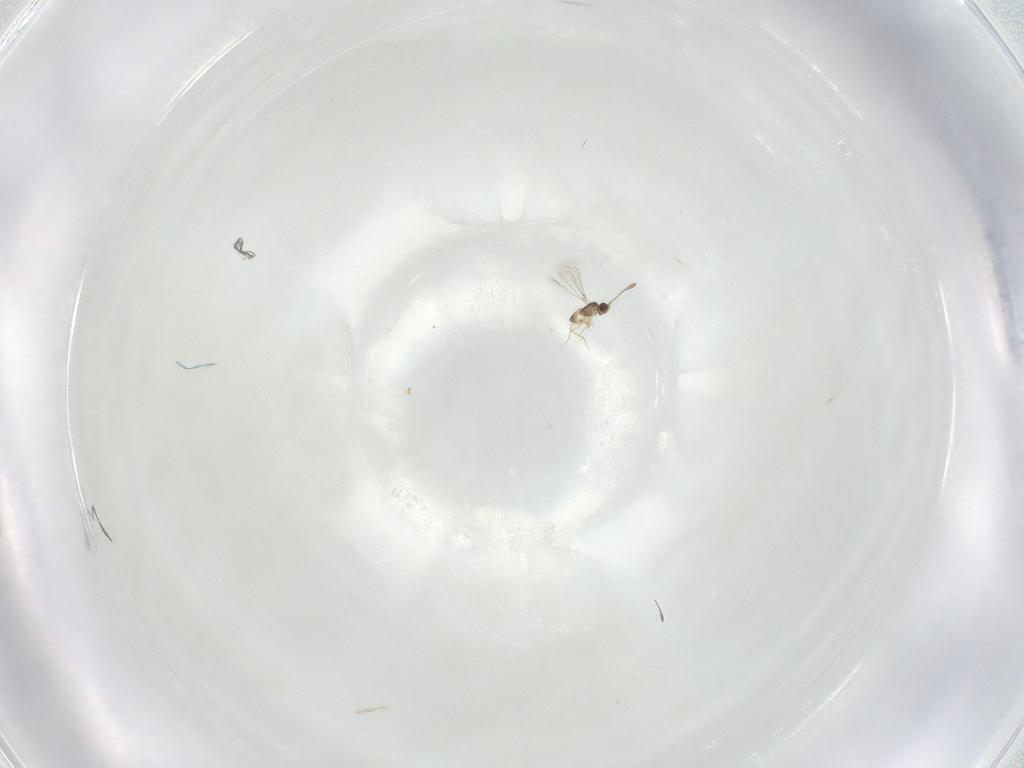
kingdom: Animalia
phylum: Arthropoda
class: Insecta
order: Diptera
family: Cecidomyiidae
